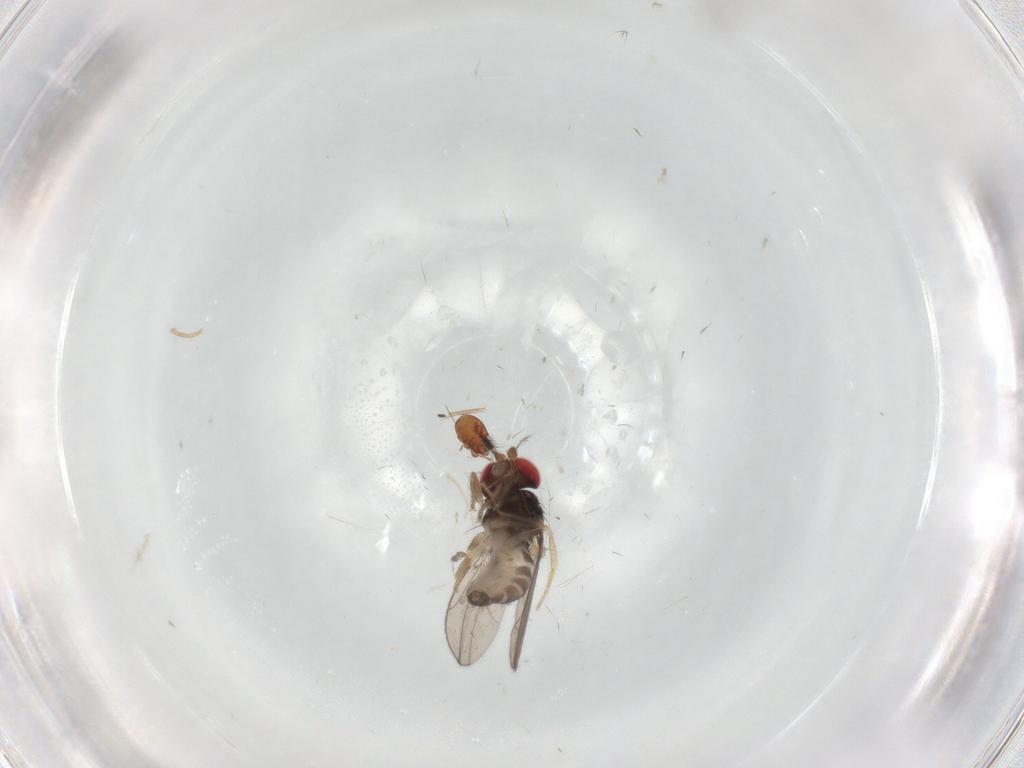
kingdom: Animalia
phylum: Arthropoda
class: Insecta
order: Diptera
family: Drosophilidae
